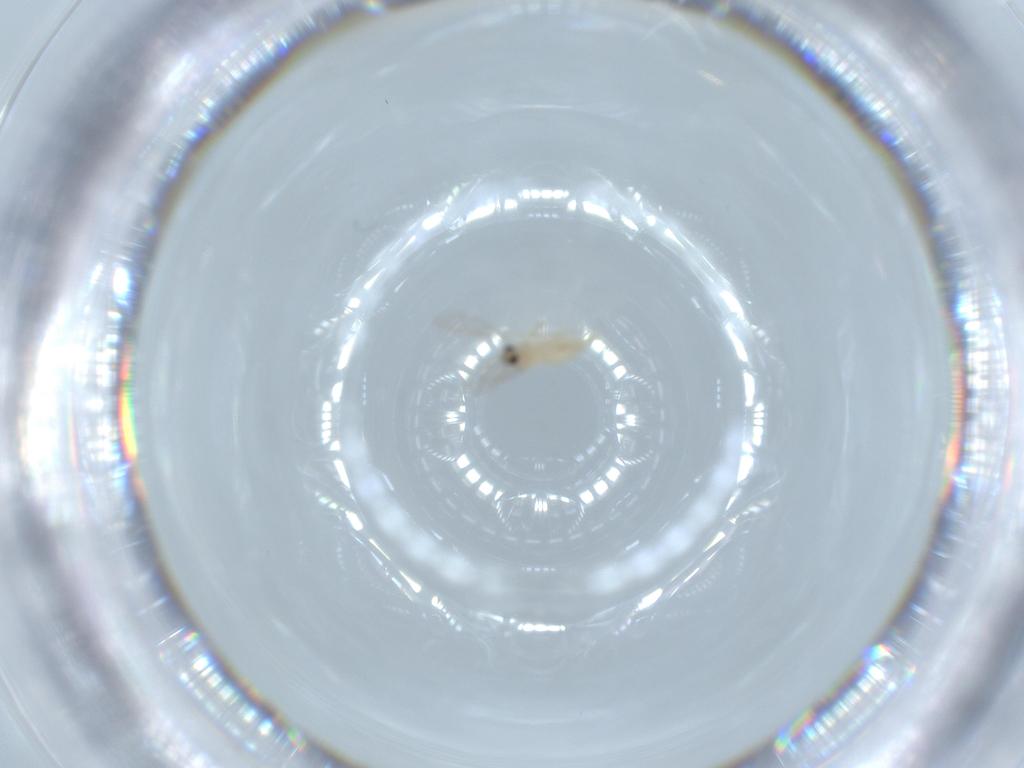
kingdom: Animalia
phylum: Arthropoda
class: Insecta
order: Diptera
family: Cecidomyiidae
